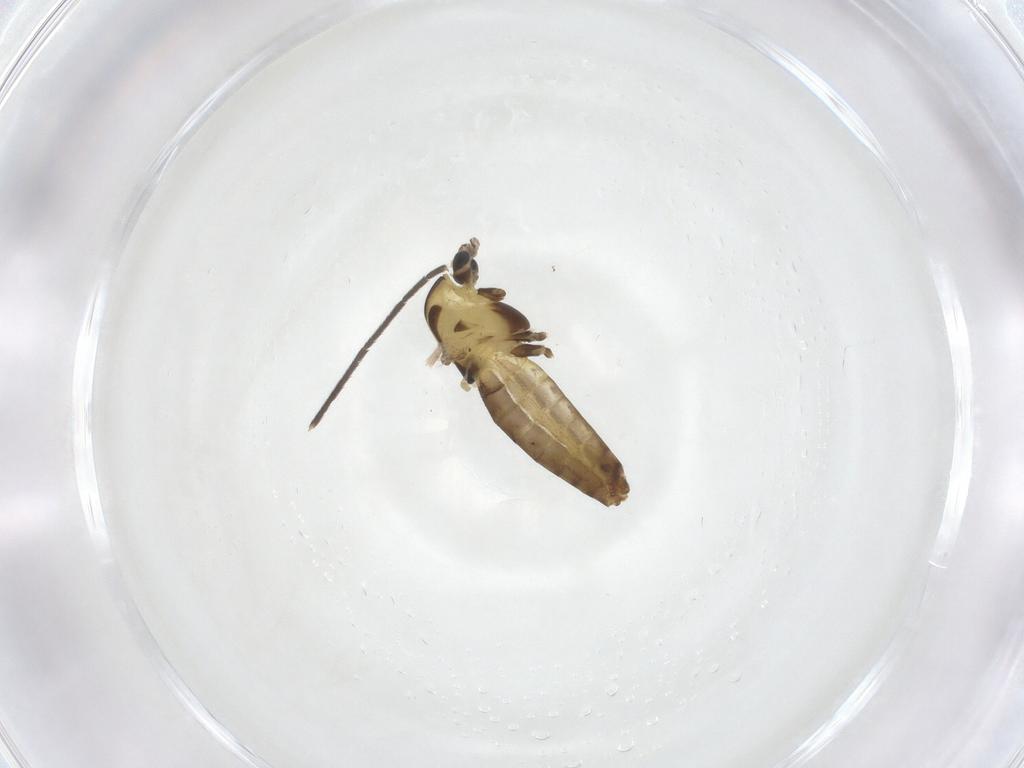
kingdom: Animalia
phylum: Arthropoda
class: Insecta
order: Diptera
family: Chironomidae
